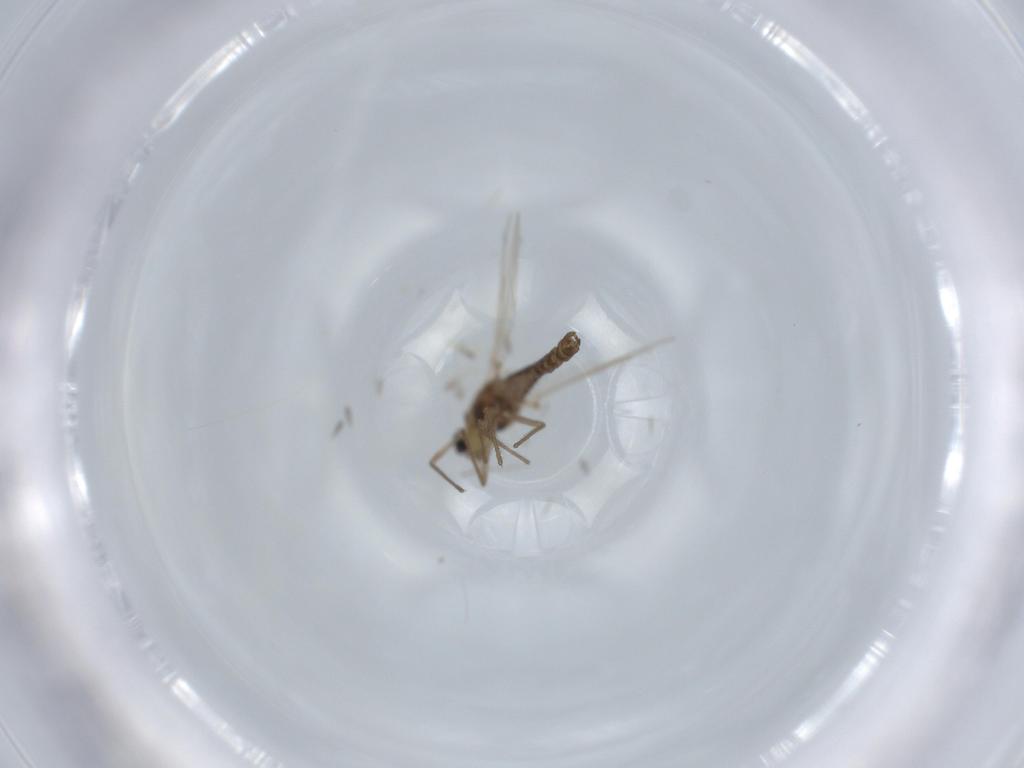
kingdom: Animalia
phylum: Arthropoda
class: Insecta
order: Diptera
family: Chironomidae
